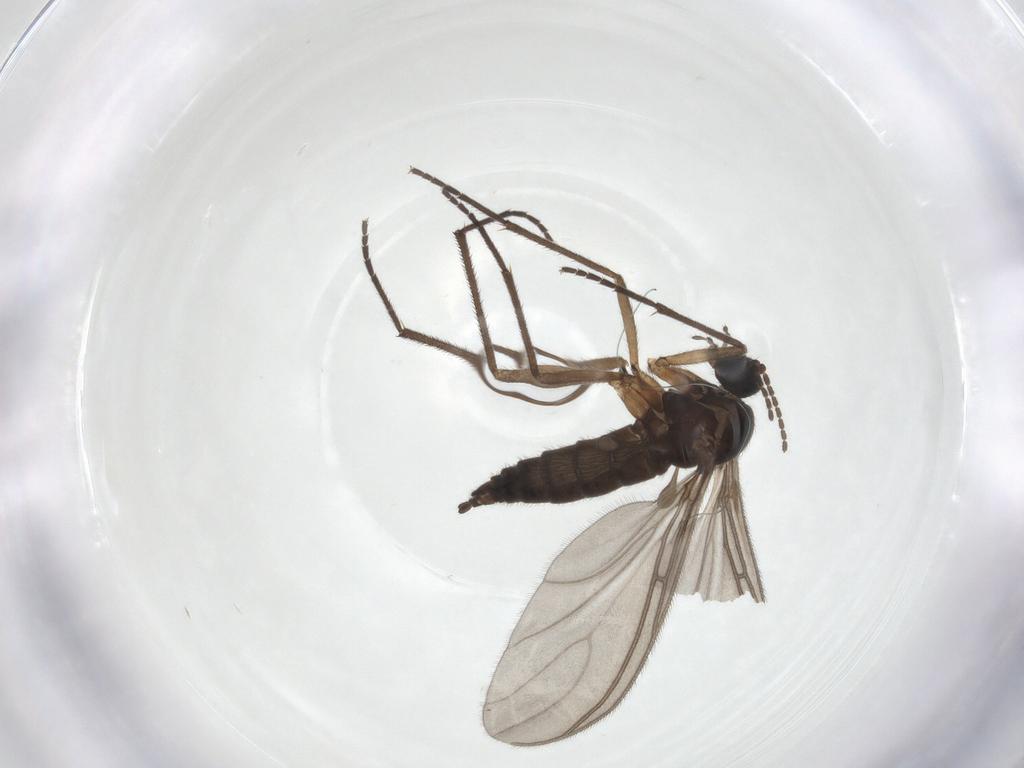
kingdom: Animalia
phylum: Arthropoda
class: Insecta
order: Diptera
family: Sciaridae
